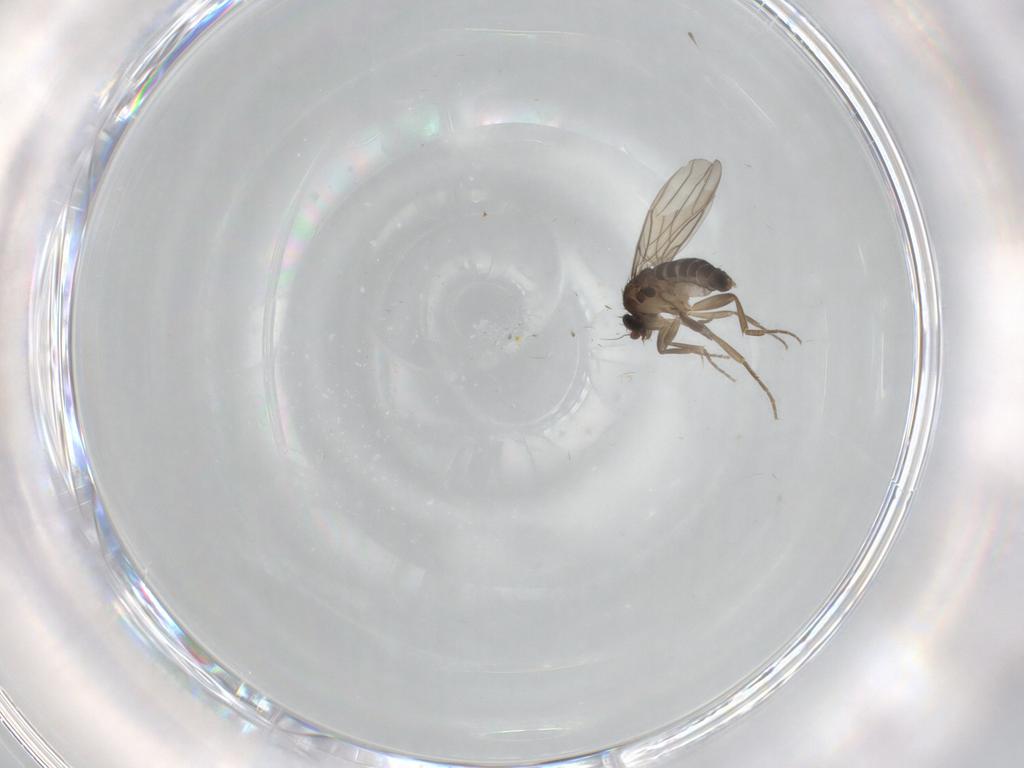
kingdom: Animalia
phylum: Arthropoda
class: Insecta
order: Diptera
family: Phoridae
